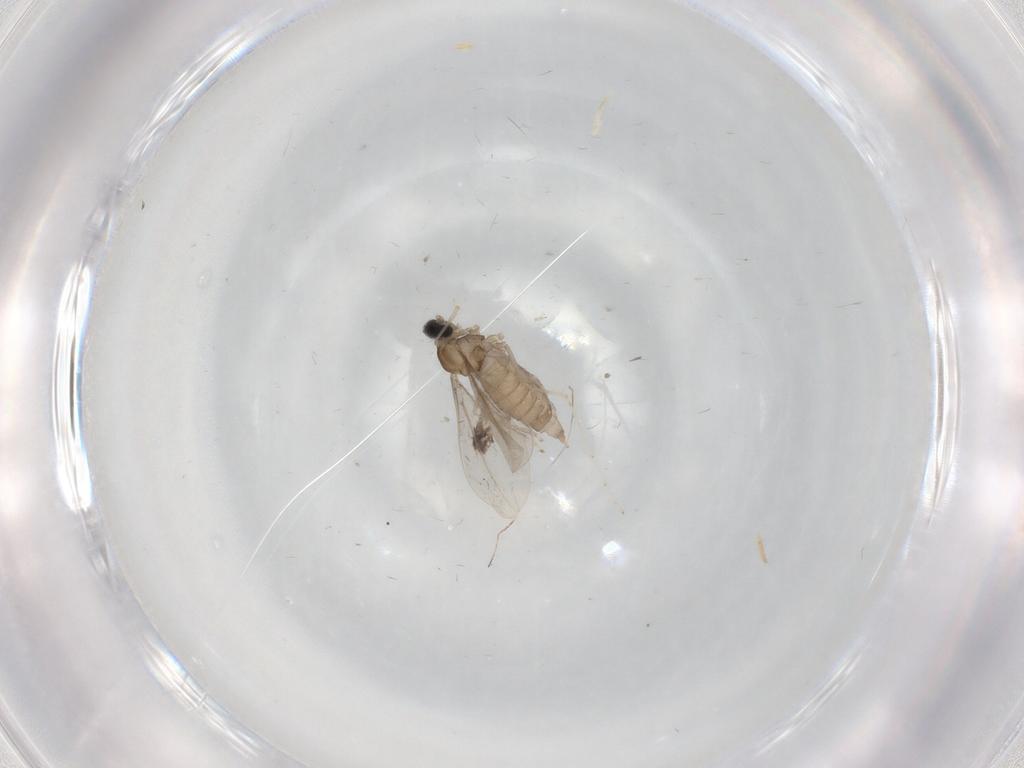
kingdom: Animalia
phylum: Arthropoda
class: Insecta
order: Diptera
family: Cecidomyiidae
